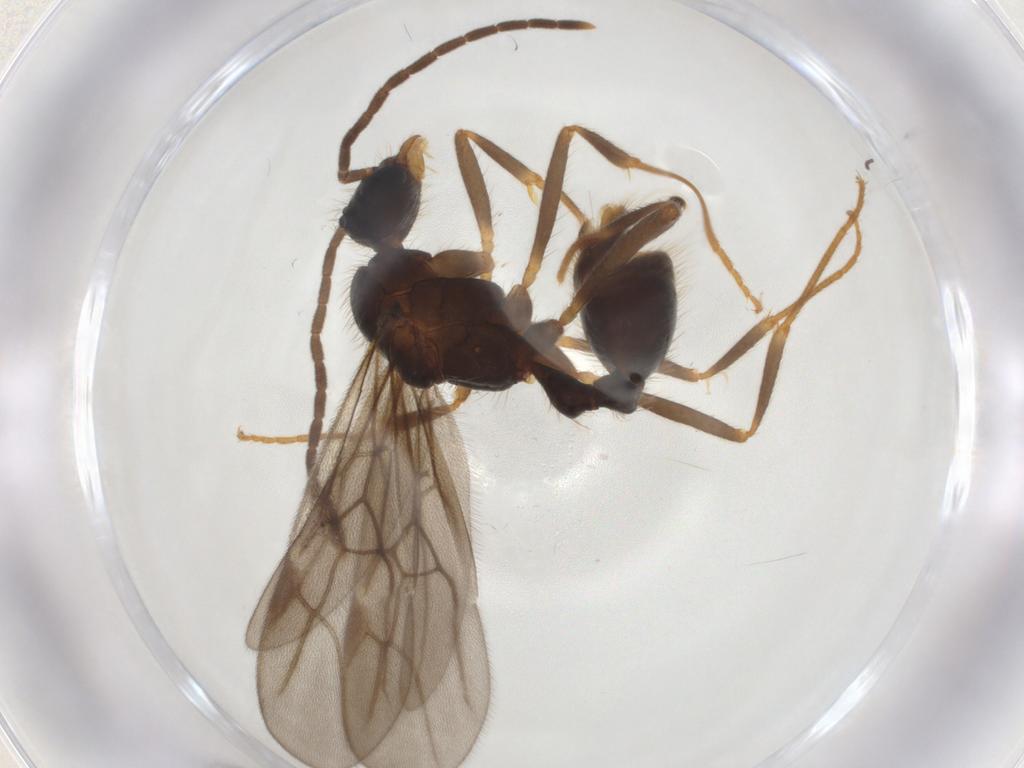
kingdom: Animalia
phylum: Arthropoda
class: Insecta
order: Hymenoptera
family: Formicidae
